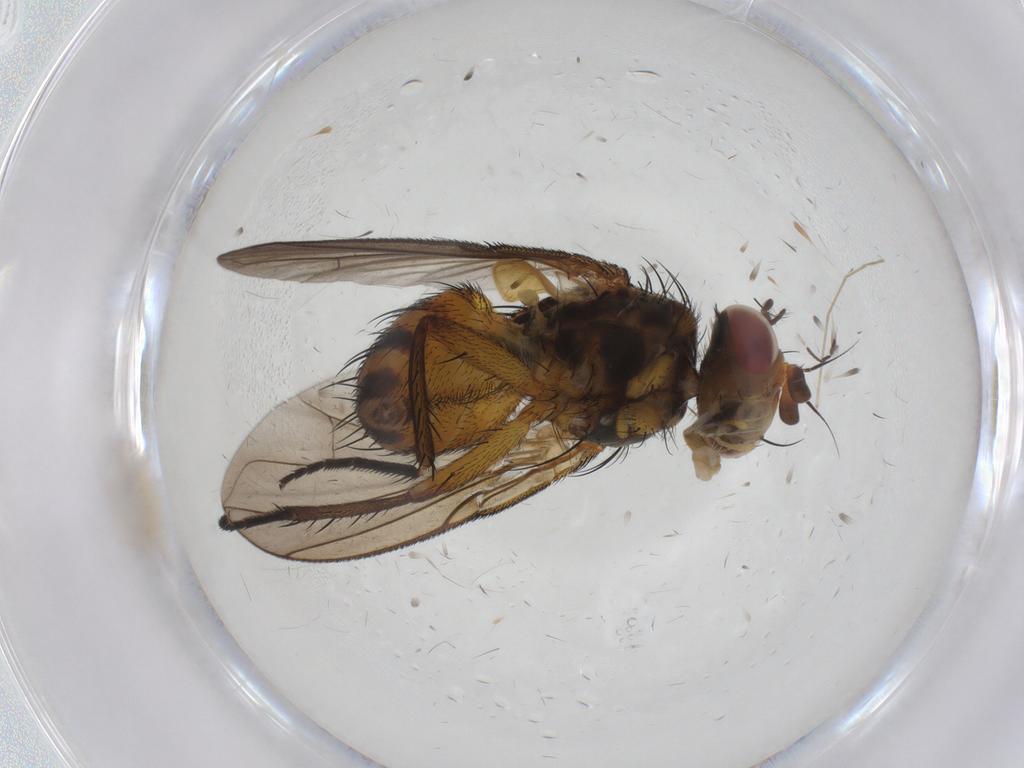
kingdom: Animalia
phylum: Arthropoda
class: Insecta
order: Diptera
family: Tachinidae
